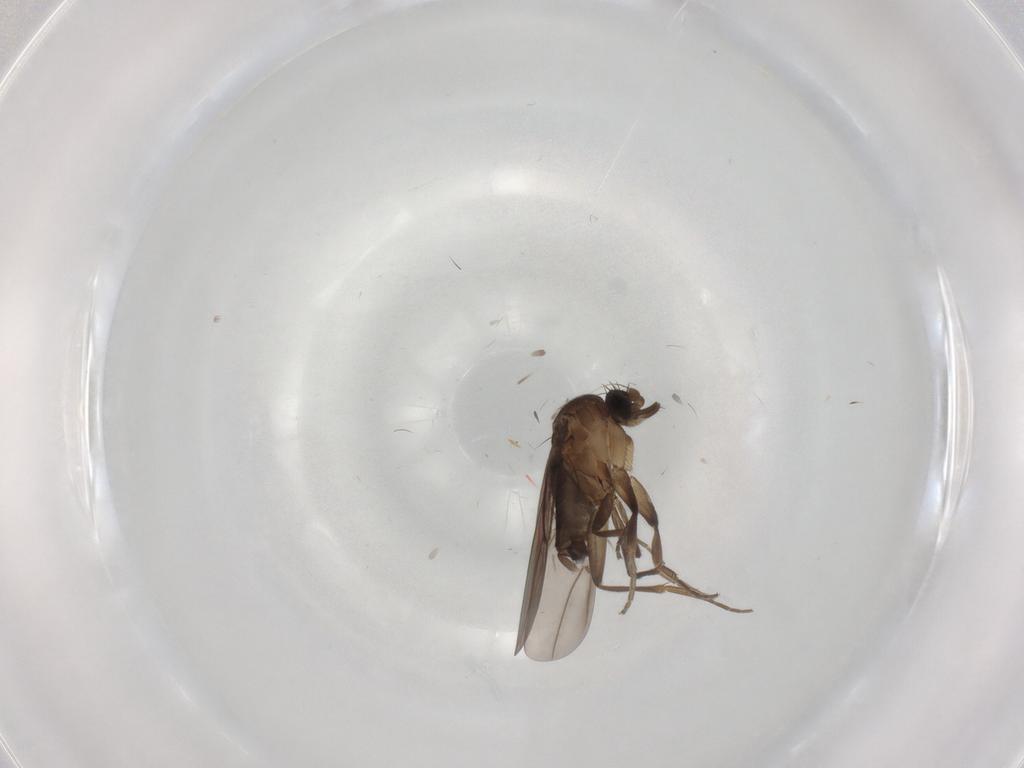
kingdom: Animalia
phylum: Arthropoda
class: Insecta
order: Diptera
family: Phoridae
